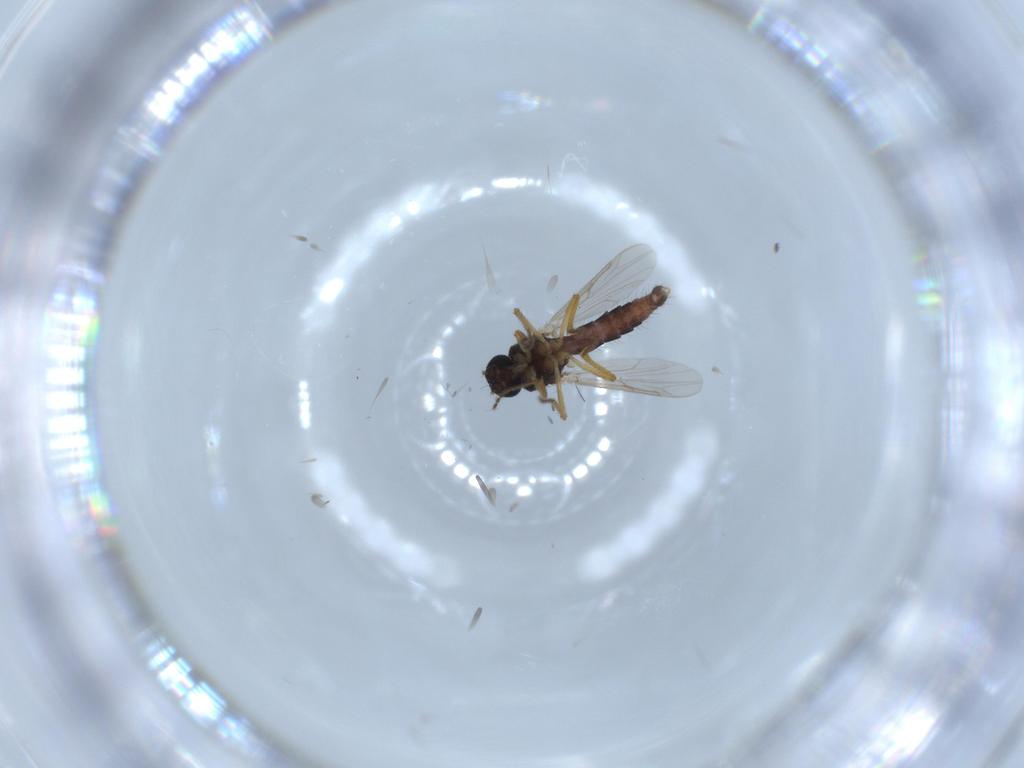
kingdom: Animalia
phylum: Arthropoda
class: Insecta
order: Diptera
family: Ceratopogonidae
